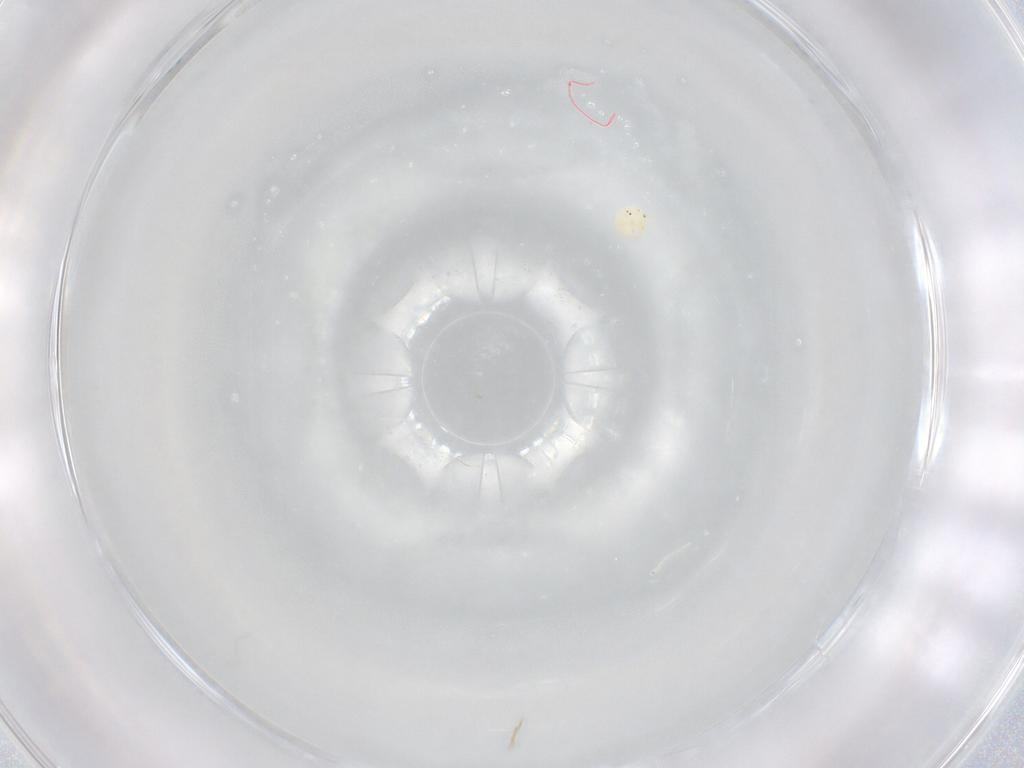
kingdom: Animalia
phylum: Arthropoda
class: Arachnida
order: Trombidiformes
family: Hydryphantidae
